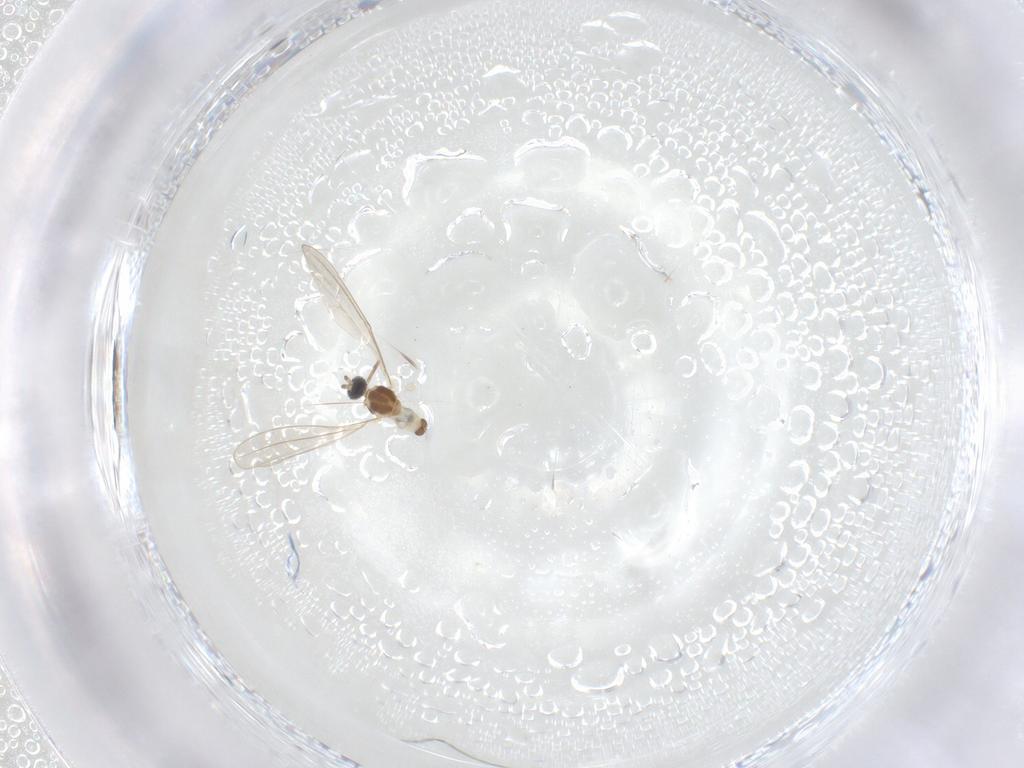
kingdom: Animalia
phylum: Arthropoda
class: Insecta
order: Diptera
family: Cecidomyiidae
